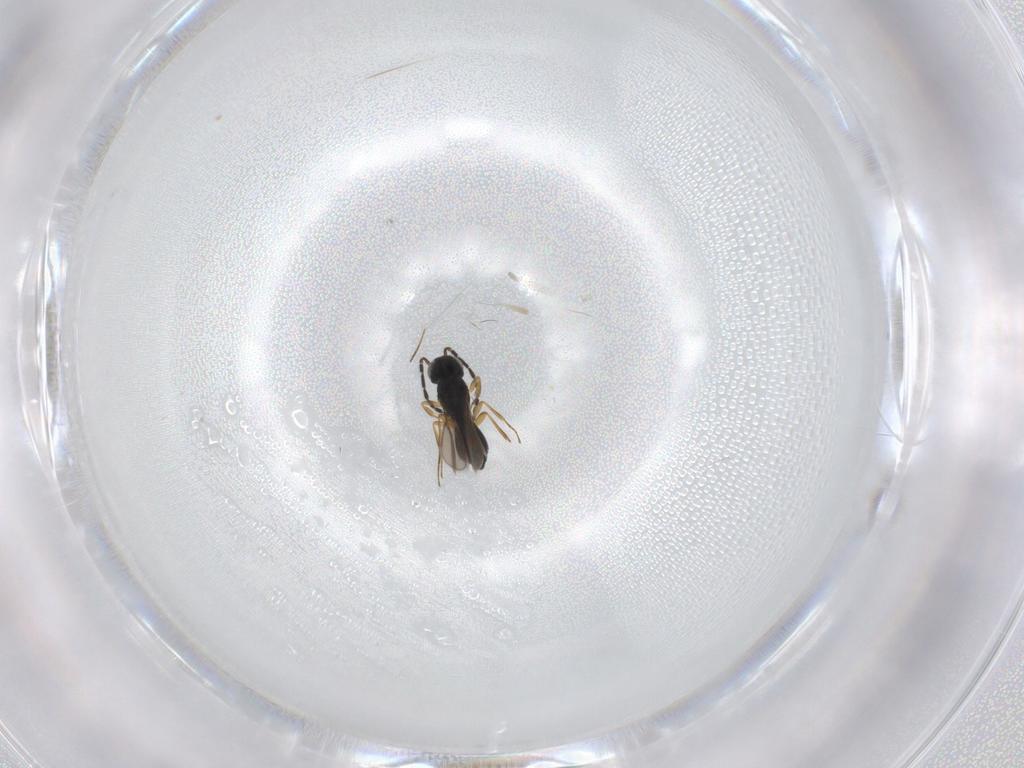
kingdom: Animalia
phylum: Arthropoda
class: Insecta
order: Hymenoptera
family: Scelionidae
